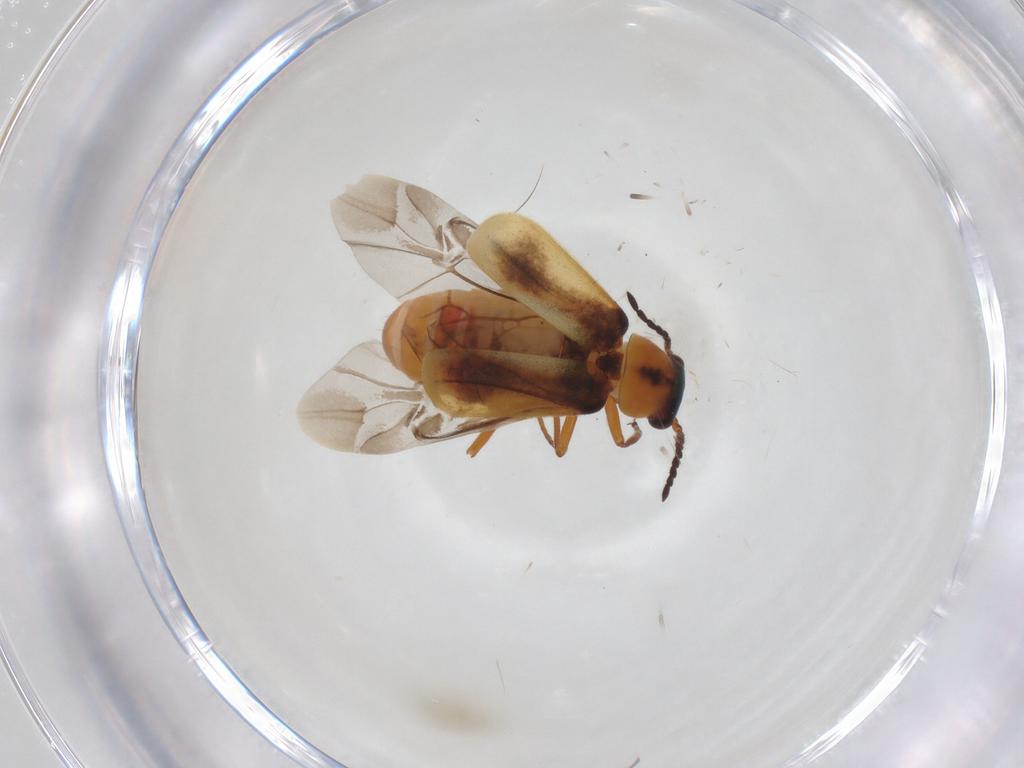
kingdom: Animalia
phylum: Arthropoda
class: Insecta
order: Coleoptera
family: Melyridae
